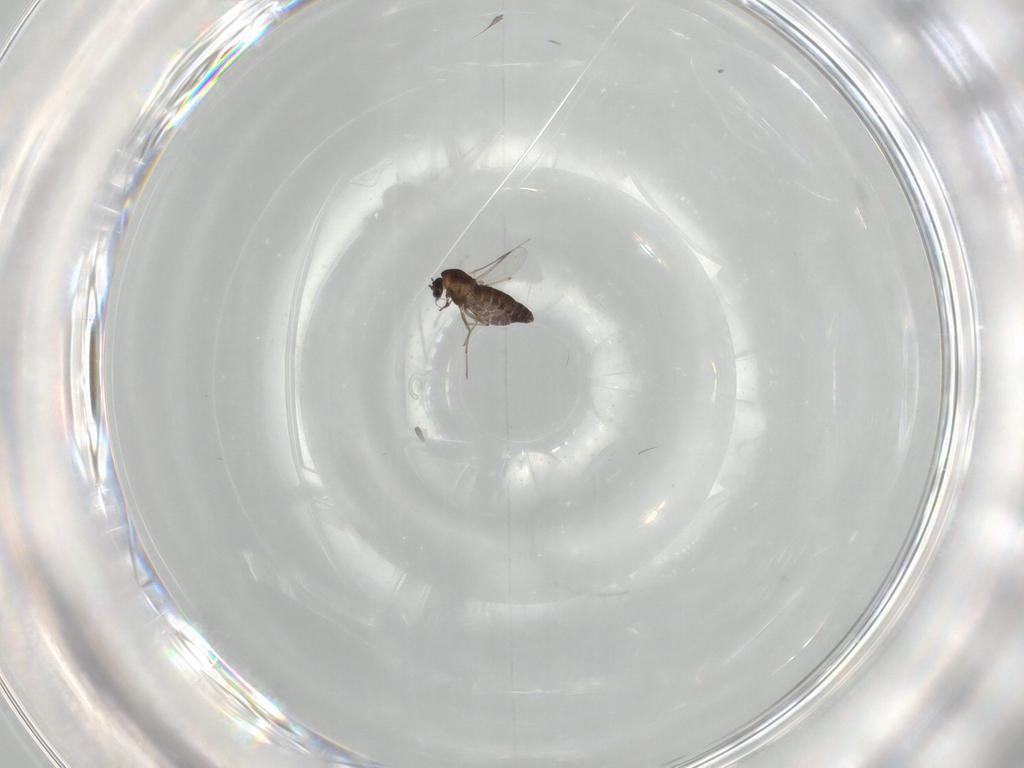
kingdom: Animalia
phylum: Arthropoda
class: Insecta
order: Diptera
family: Chironomidae
